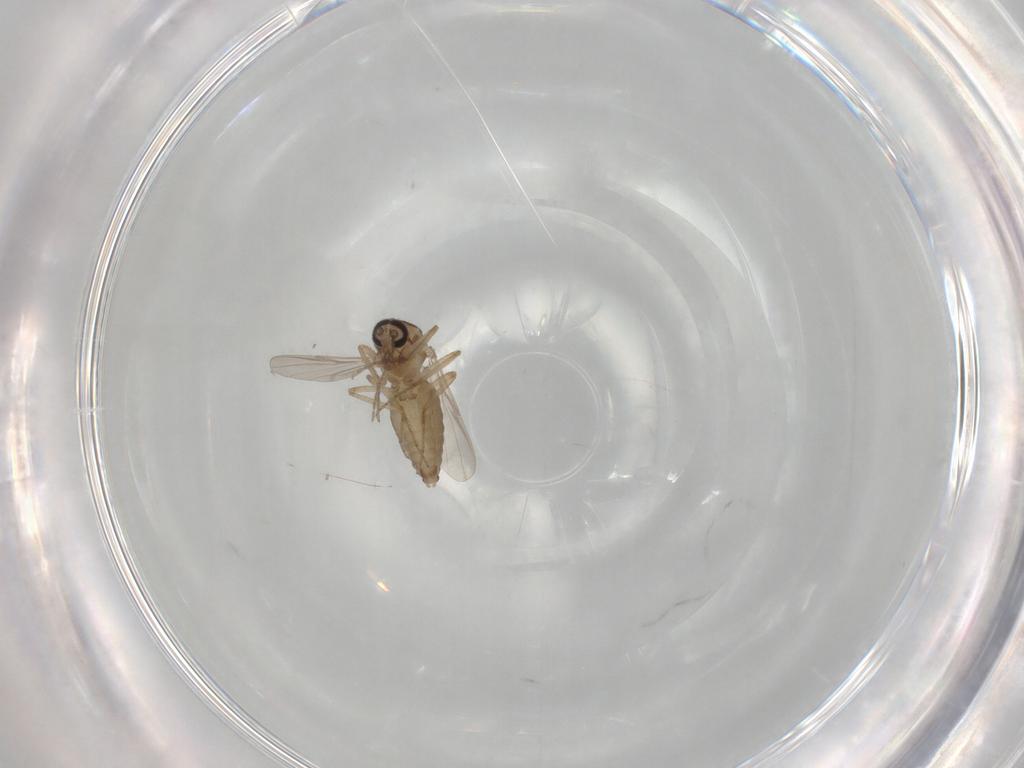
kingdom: Animalia
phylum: Arthropoda
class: Insecta
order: Diptera
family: Ceratopogonidae
